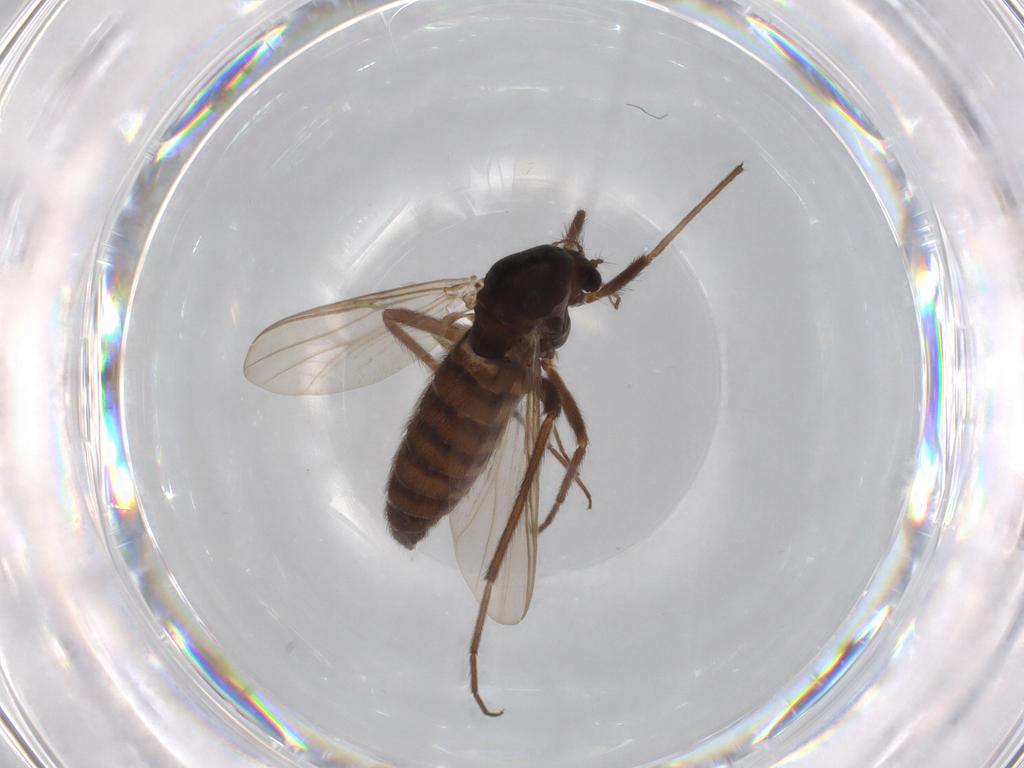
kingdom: Animalia
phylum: Arthropoda
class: Insecta
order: Diptera
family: Chironomidae
